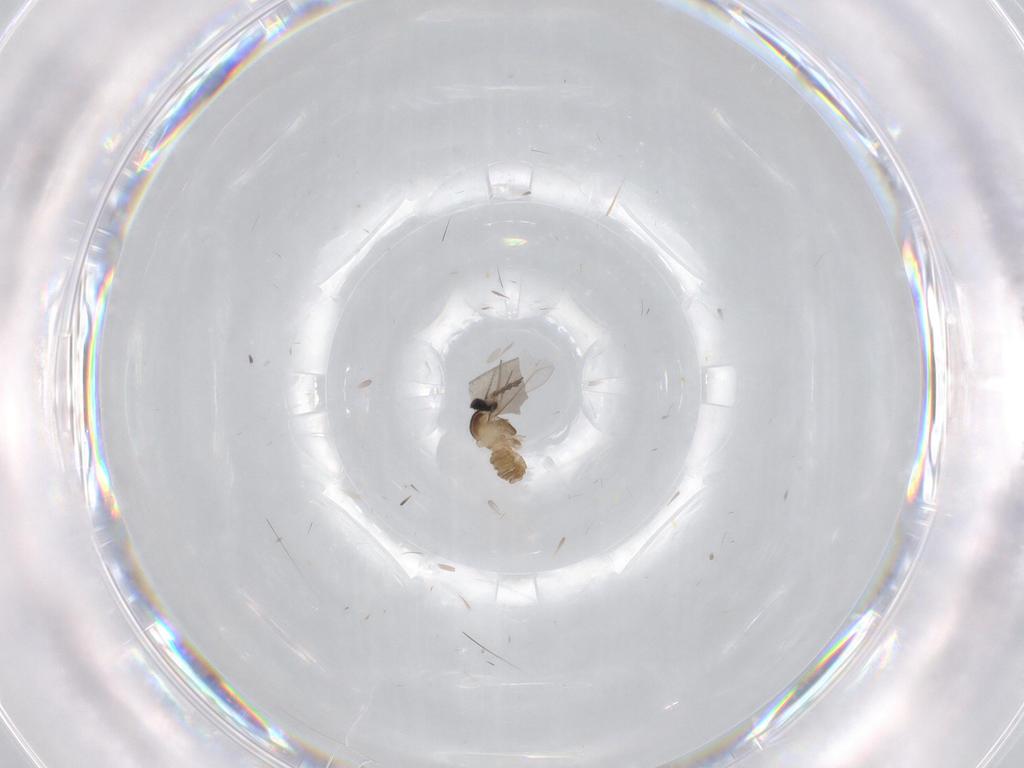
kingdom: Animalia
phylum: Arthropoda
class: Insecta
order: Diptera
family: Cecidomyiidae
